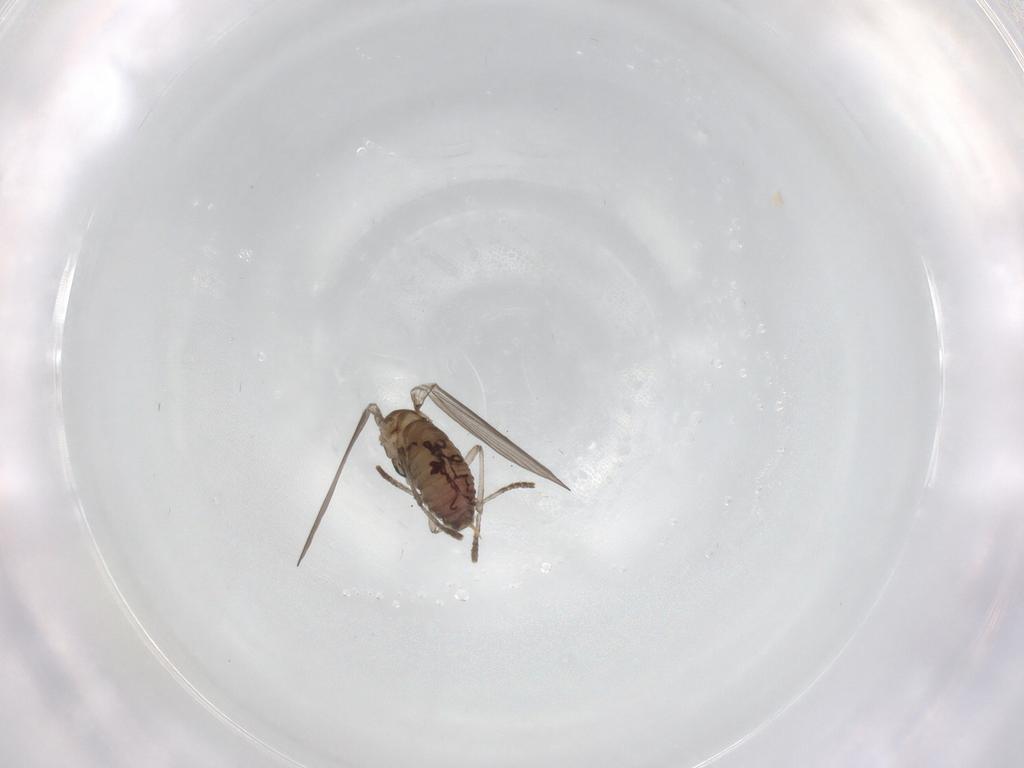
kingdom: Animalia
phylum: Arthropoda
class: Insecta
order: Diptera
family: Psychodidae
